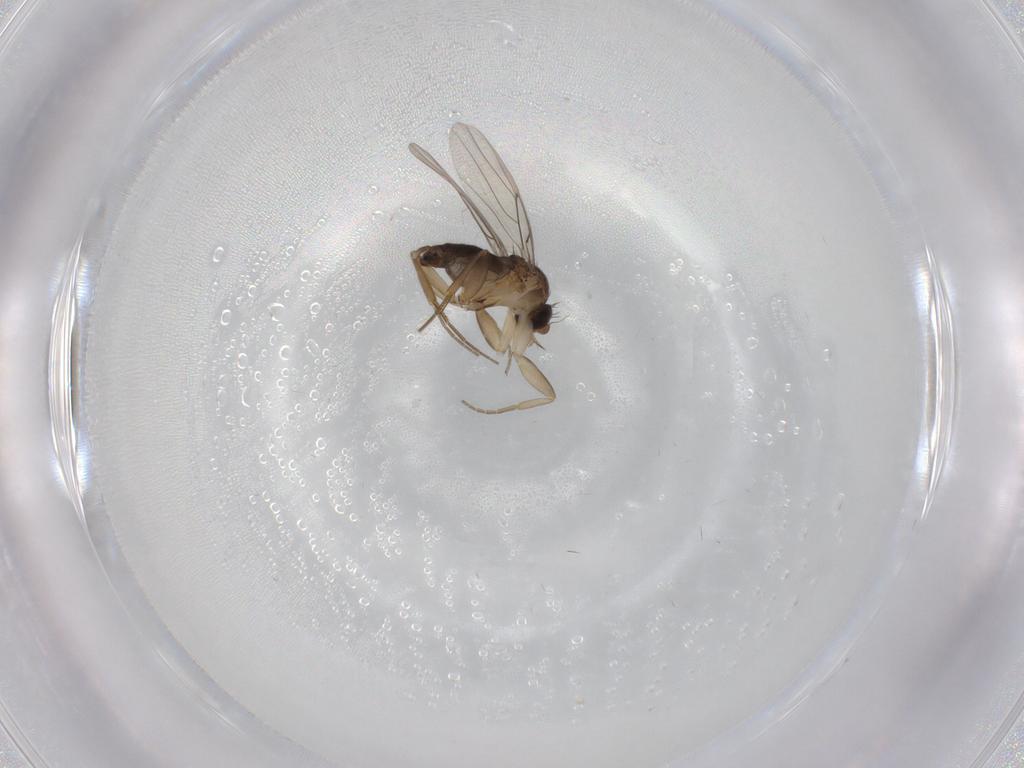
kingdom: Animalia
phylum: Arthropoda
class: Insecta
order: Diptera
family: Phoridae
